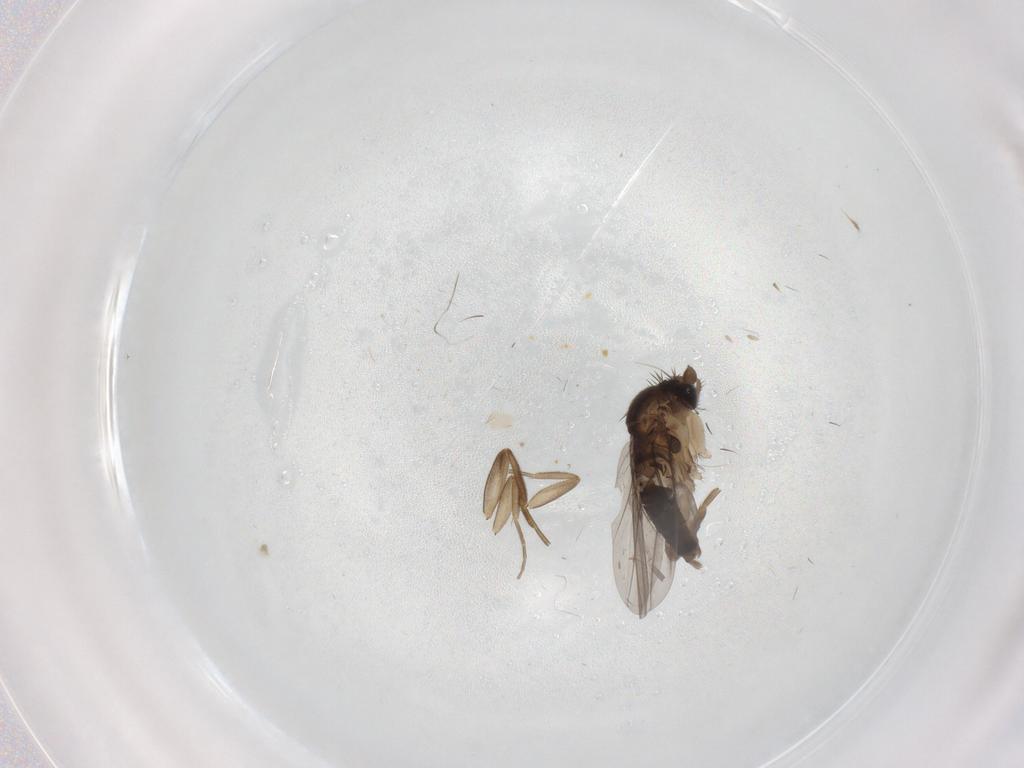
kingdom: Animalia
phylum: Arthropoda
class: Insecta
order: Diptera
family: Phoridae
